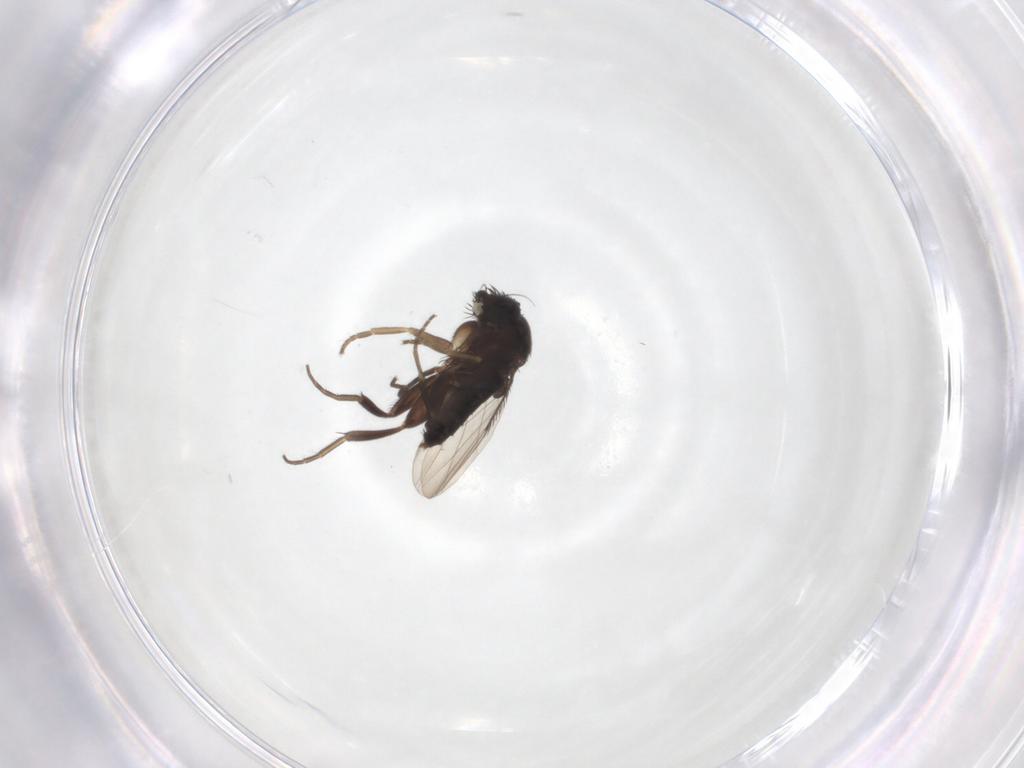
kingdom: Animalia
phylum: Arthropoda
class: Insecta
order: Diptera
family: Phoridae
